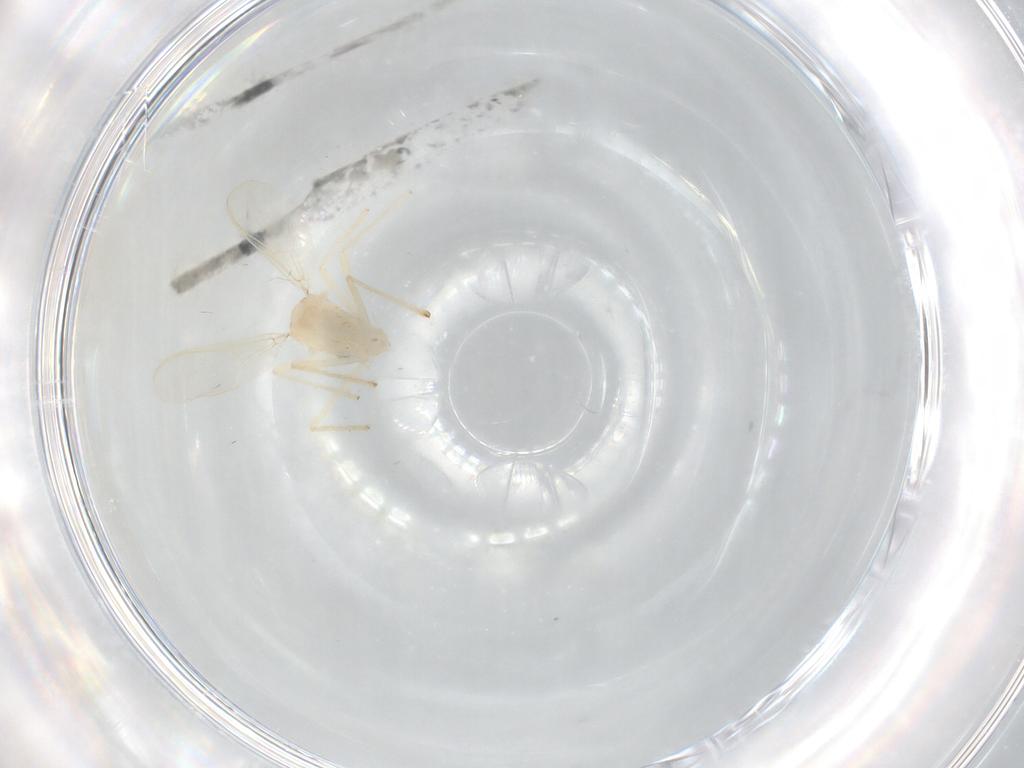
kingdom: Animalia
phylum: Arthropoda
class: Insecta
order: Diptera
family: Chironomidae
